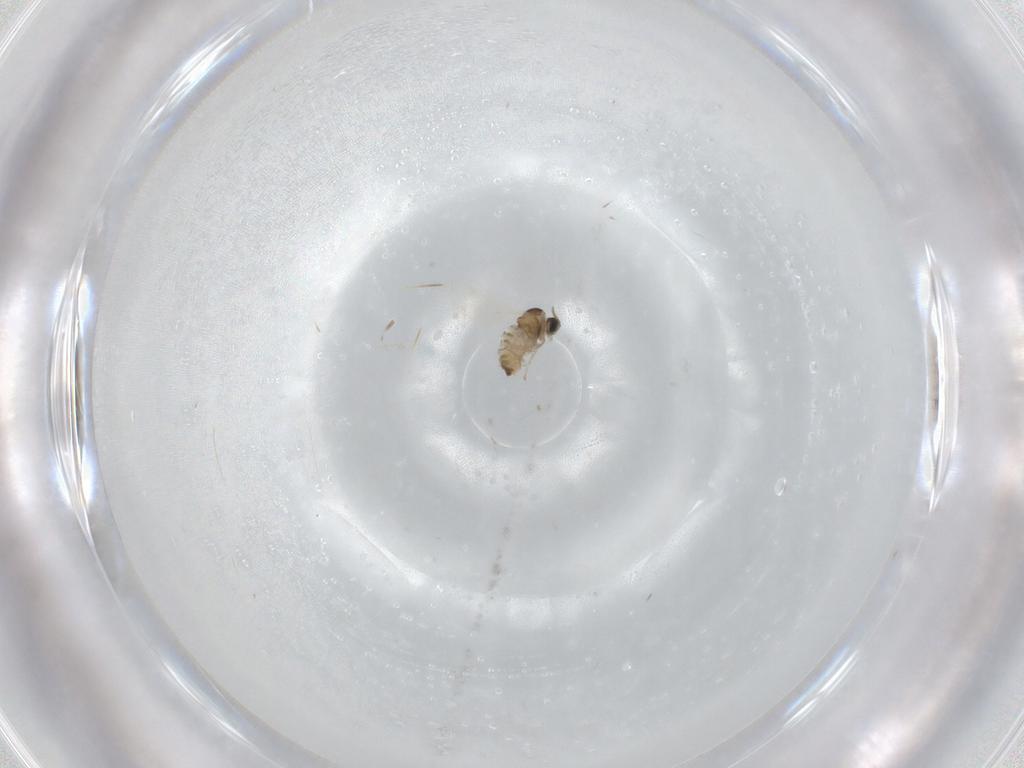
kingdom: Animalia
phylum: Arthropoda
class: Insecta
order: Diptera
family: Cecidomyiidae
